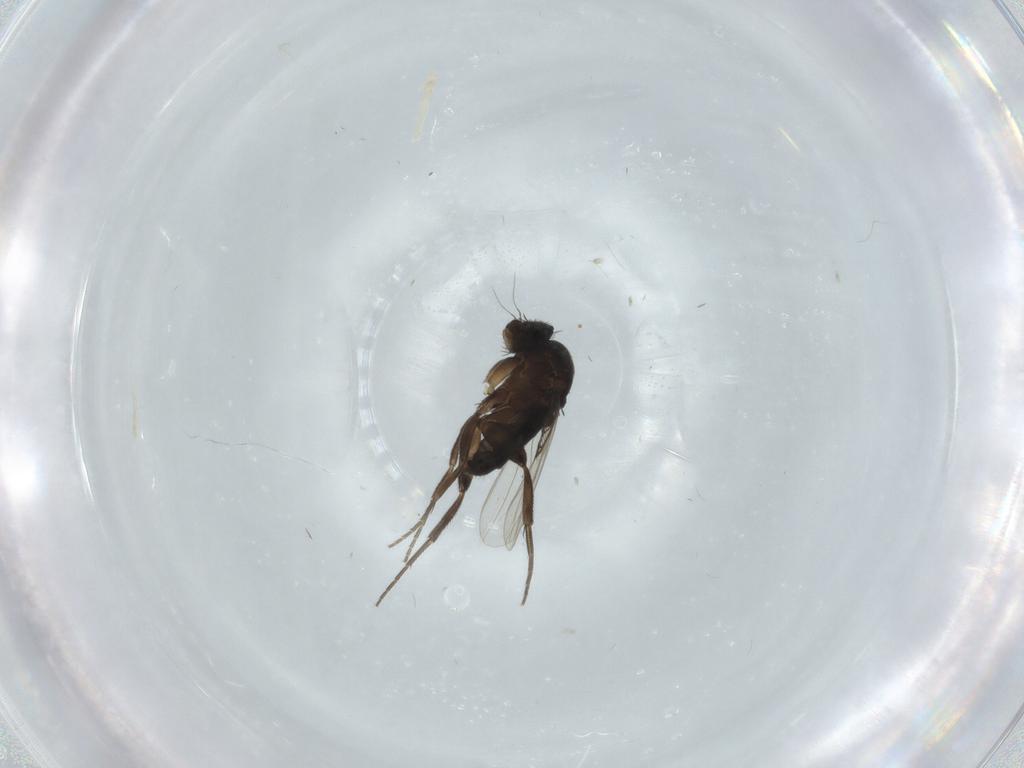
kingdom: Animalia
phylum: Arthropoda
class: Insecta
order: Diptera
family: Phoridae
